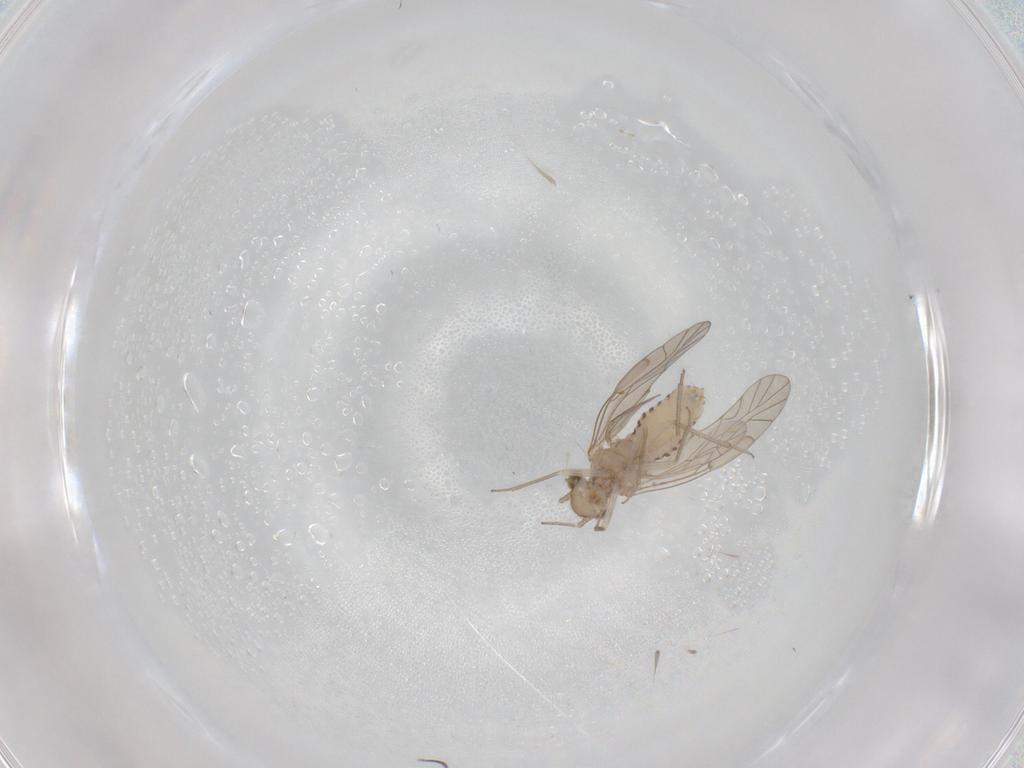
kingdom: Animalia
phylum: Arthropoda
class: Insecta
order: Psocodea
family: Lachesillidae
